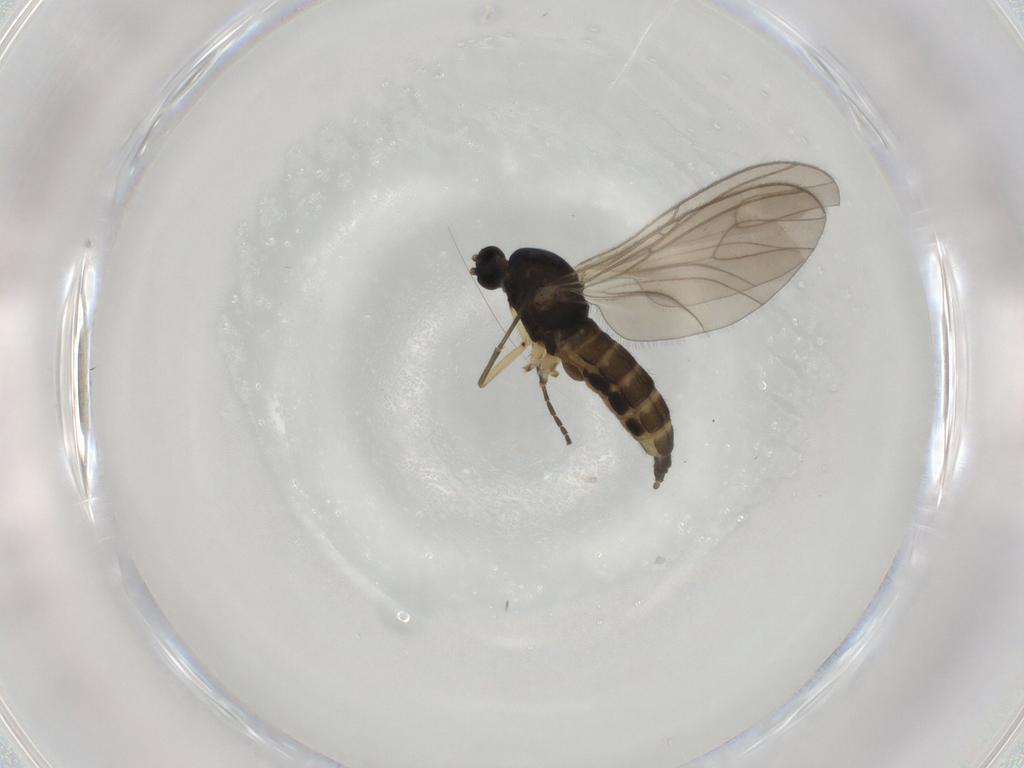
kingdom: Animalia
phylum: Arthropoda
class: Insecta
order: Diptera
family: Sciaridae
